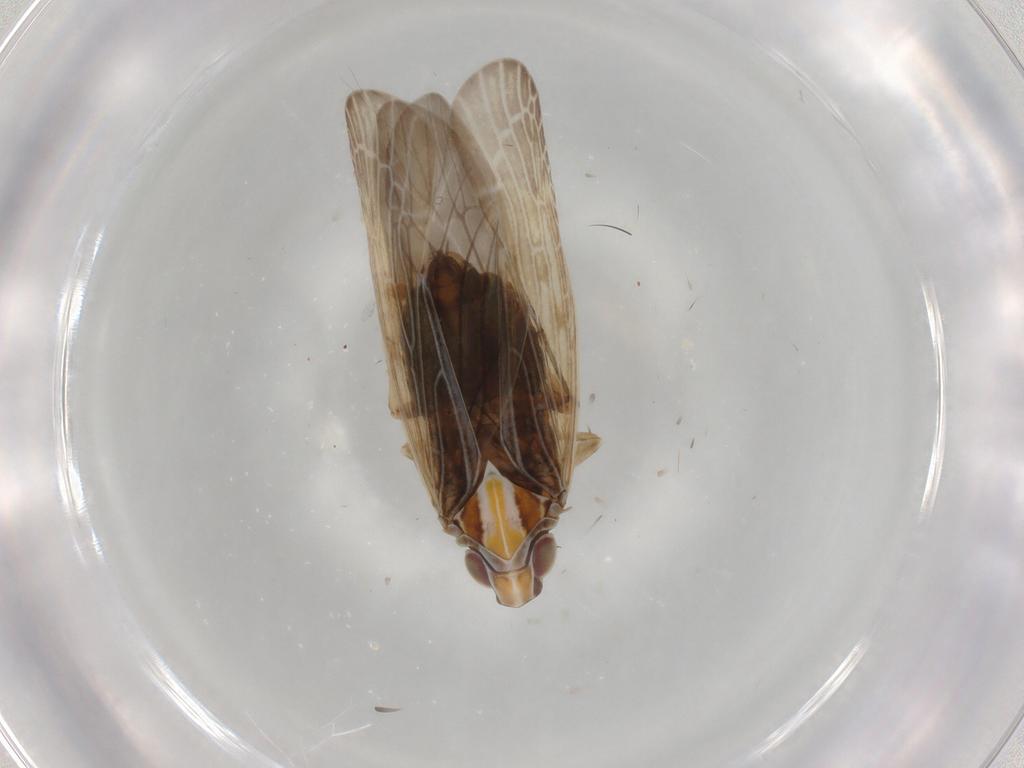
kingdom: Animalia
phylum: Arthropoda
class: Insecta
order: Hemiptera
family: Achilidae
